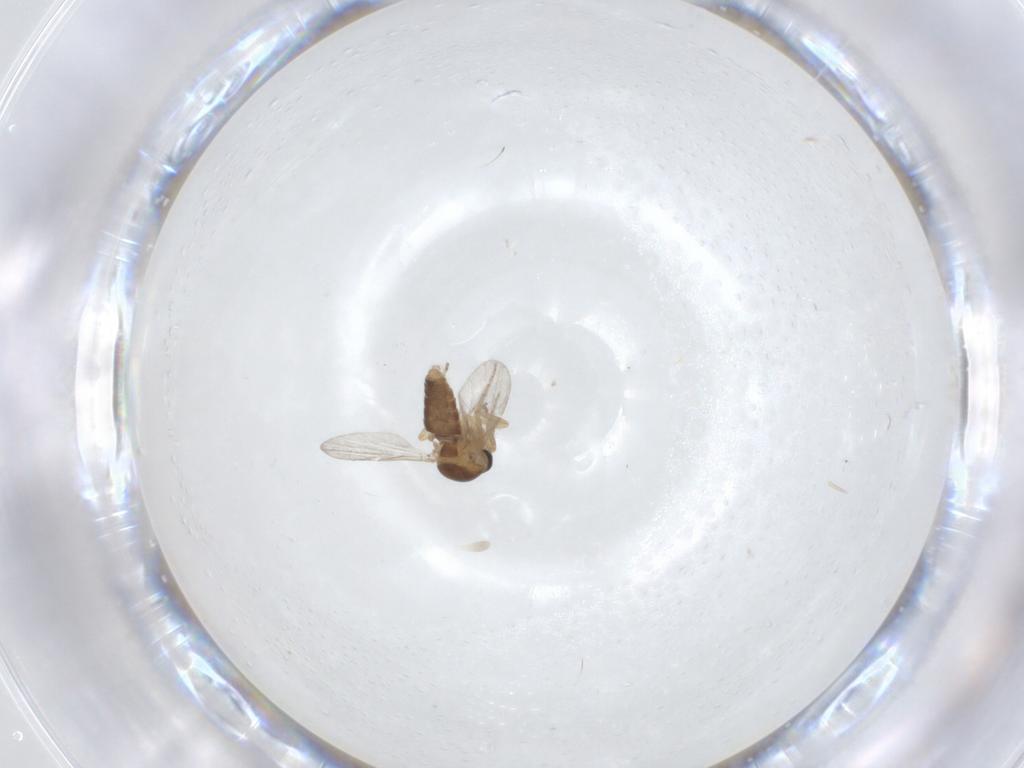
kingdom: Animalia
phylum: Arthropoda
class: Insecta
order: Diptera
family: Ceratopogonidae
